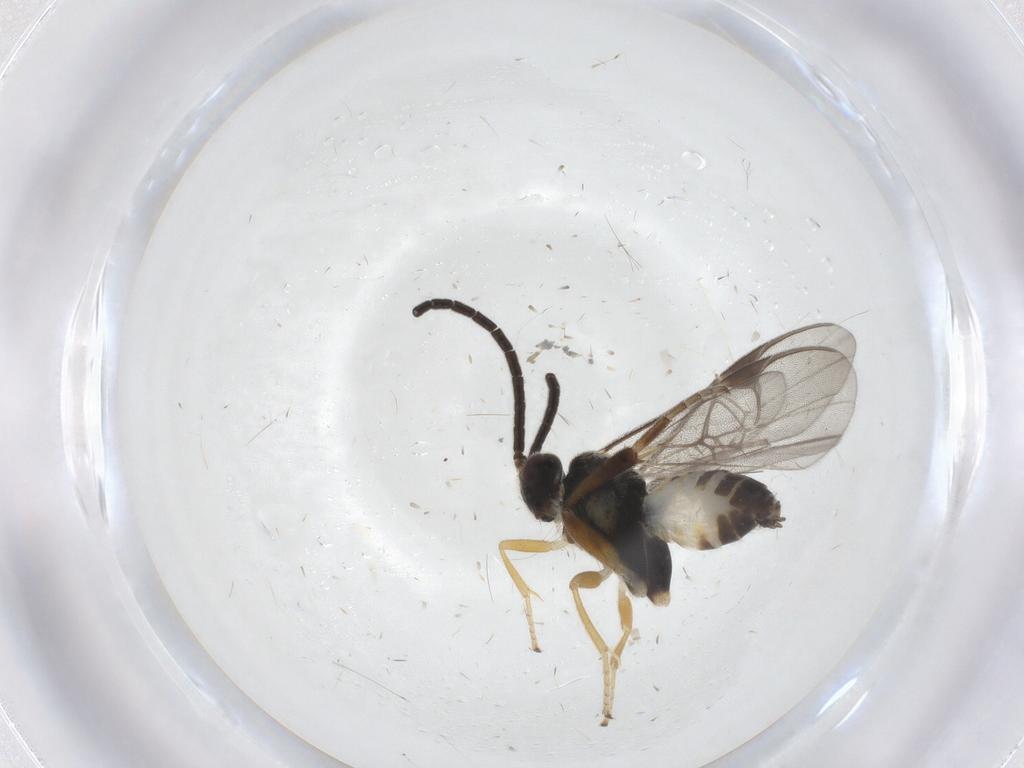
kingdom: Animalia
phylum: Arthropoda
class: Insecta
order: Hymenoptera
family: Braconidae
